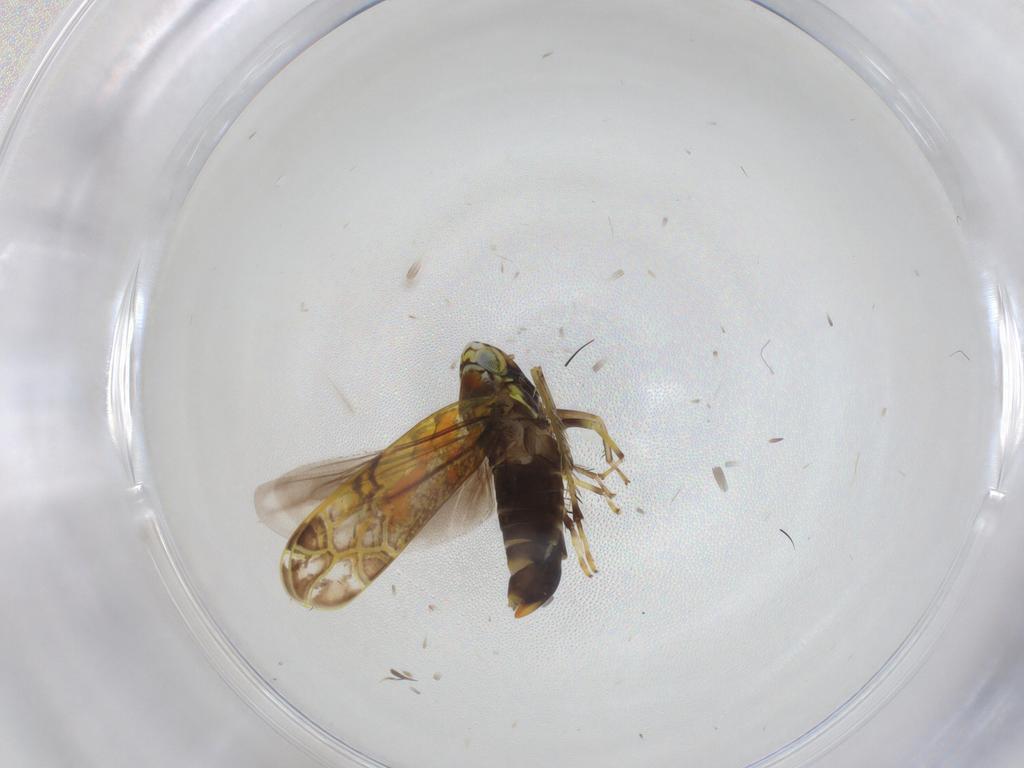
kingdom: Animalia
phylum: Arthropoda
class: Insecta
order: Hemiptera
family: Cicadellidae
